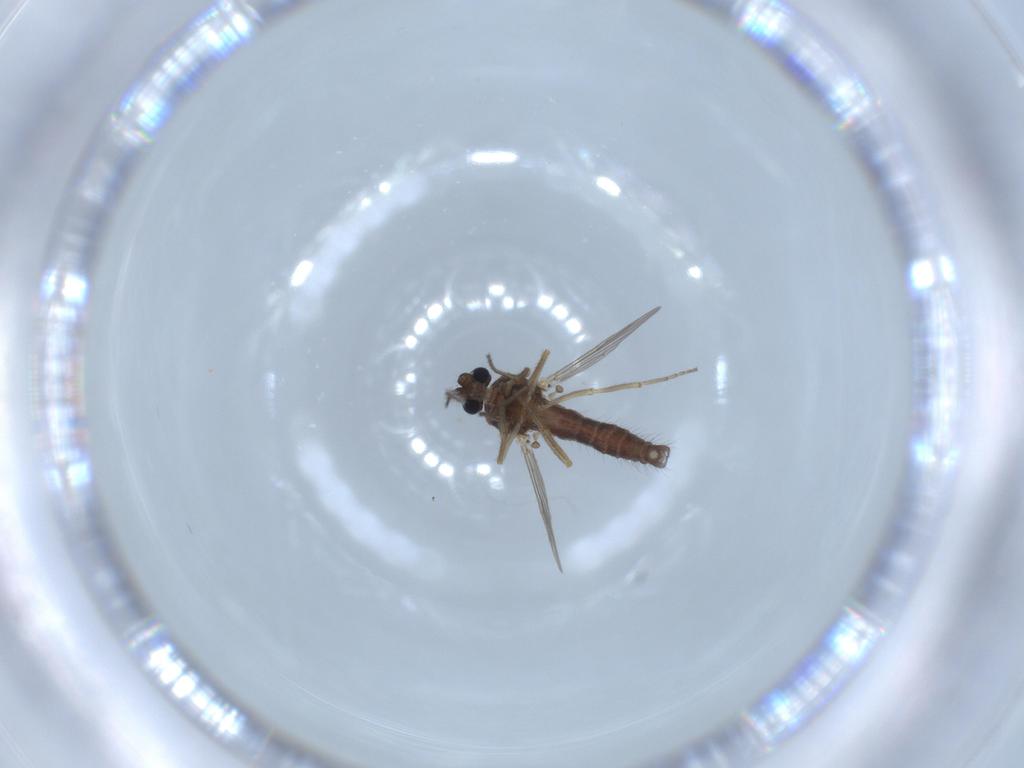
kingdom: Animalia
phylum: Arthropoda
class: Insecta
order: Diptera
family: Ceratopogonidae
